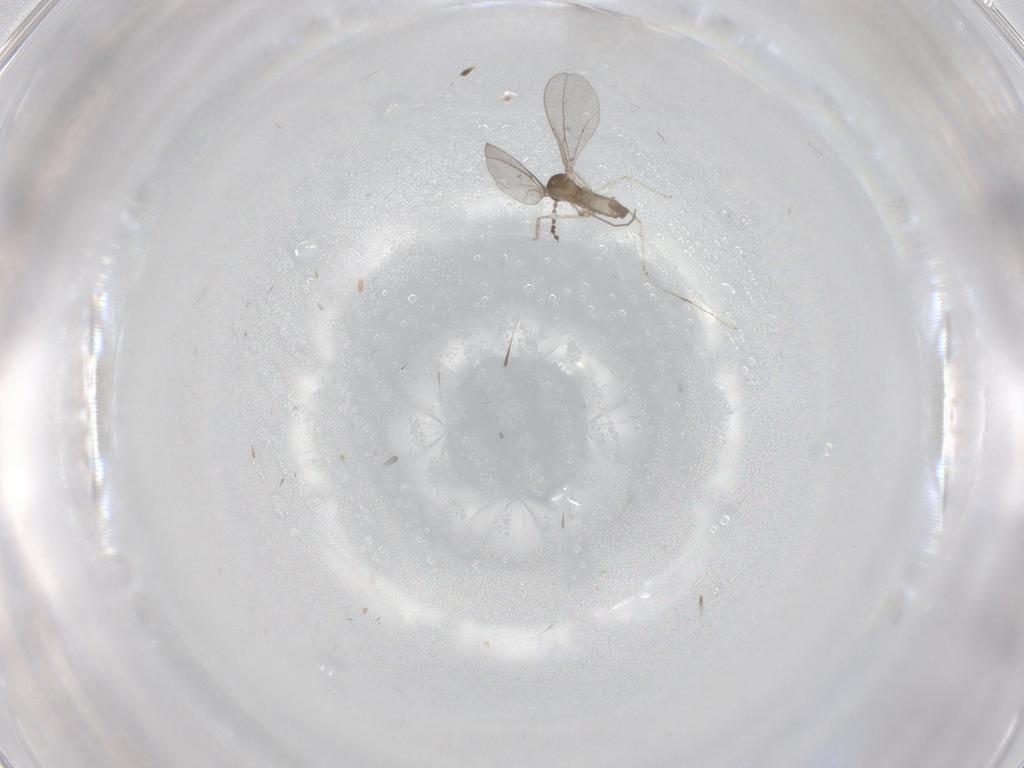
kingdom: Animalia
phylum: Arthropoda
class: Insecta
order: Diptera
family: Cecidomyiidae
